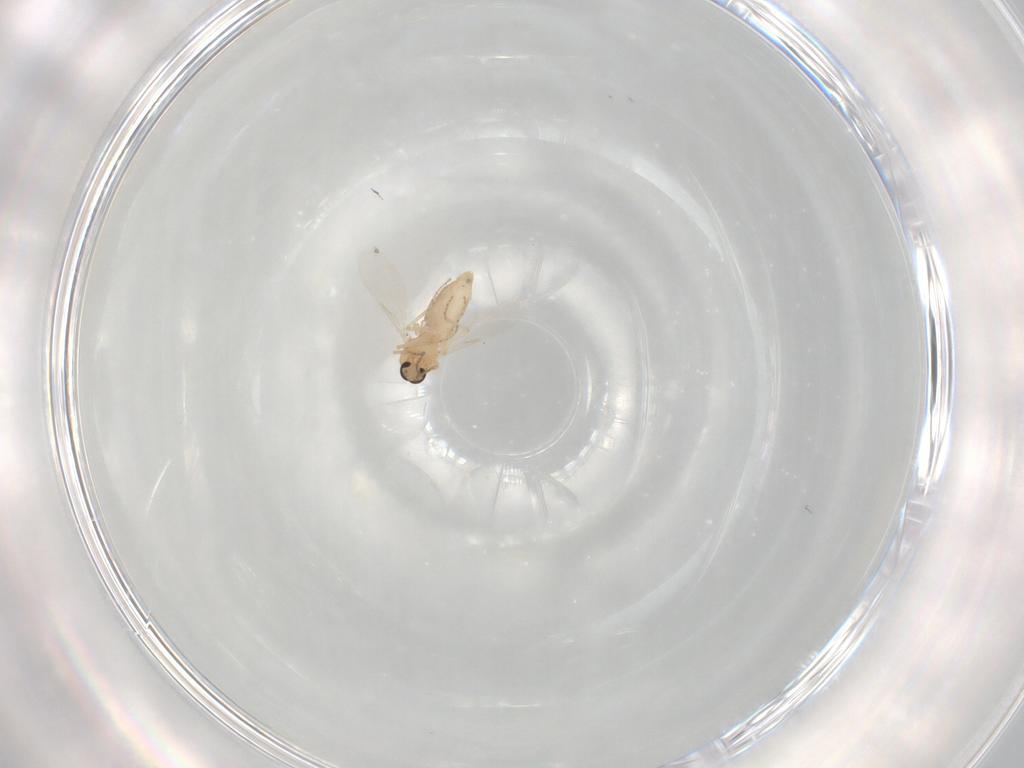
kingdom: Animalia
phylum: Arthropoda
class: Insecta
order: Diptera
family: Ceratopogonidae
